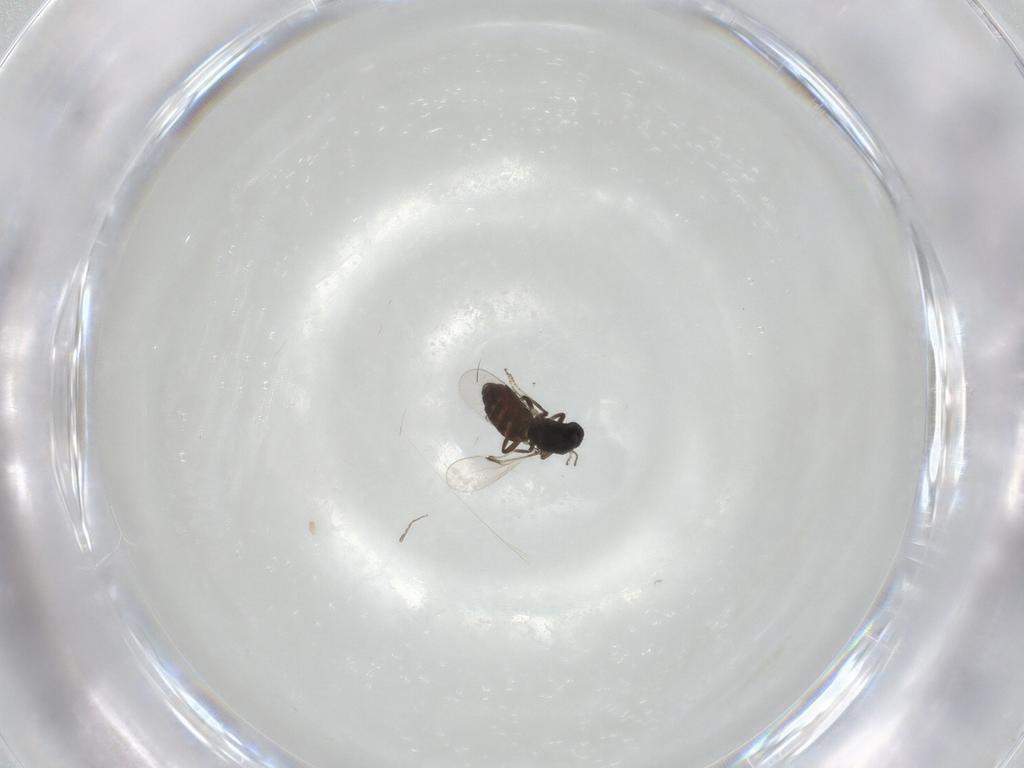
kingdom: Animalia
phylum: Arthropoda
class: Insecta
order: Diptera
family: Ceratopogonidae
